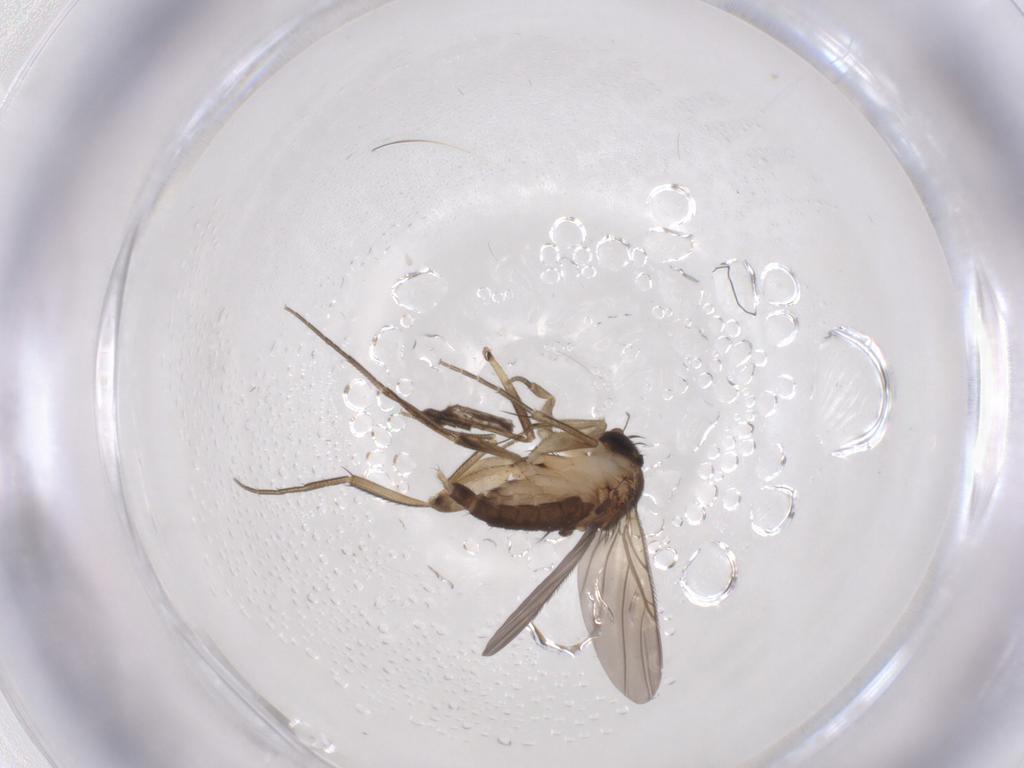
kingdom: Animalia
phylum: Arthropoda
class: Insecta
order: Diptera
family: Phoridae
